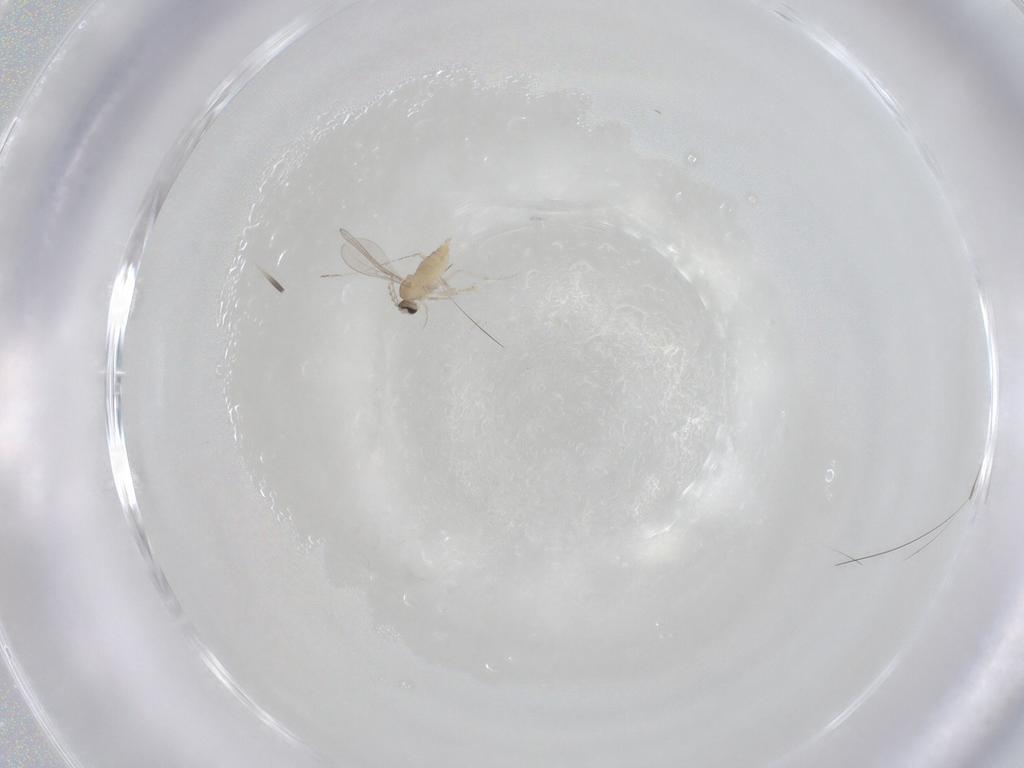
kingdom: Animalia
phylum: Arthropoda
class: Insecta
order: Diptera
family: Cecidomyiidae
